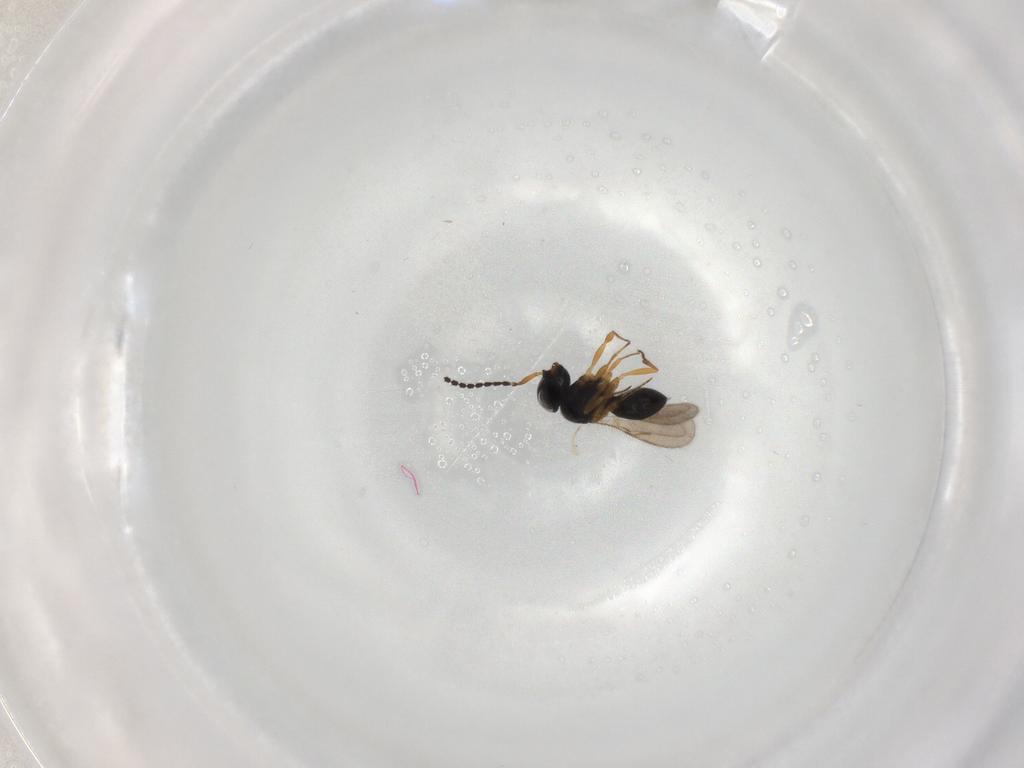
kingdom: Animalia
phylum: Arthropoda
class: Insecta
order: Hymenoptera
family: Scelionidae
